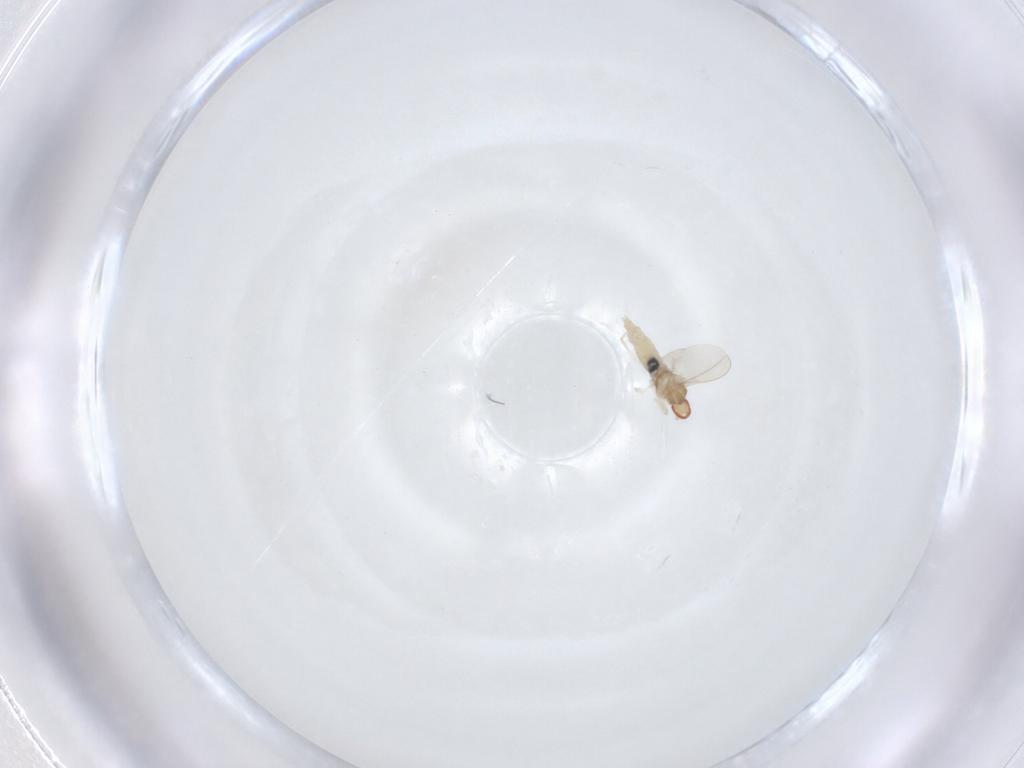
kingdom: Animalia
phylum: Arthropoda
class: Insecta
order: Diptera
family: Cecidomyiidae
